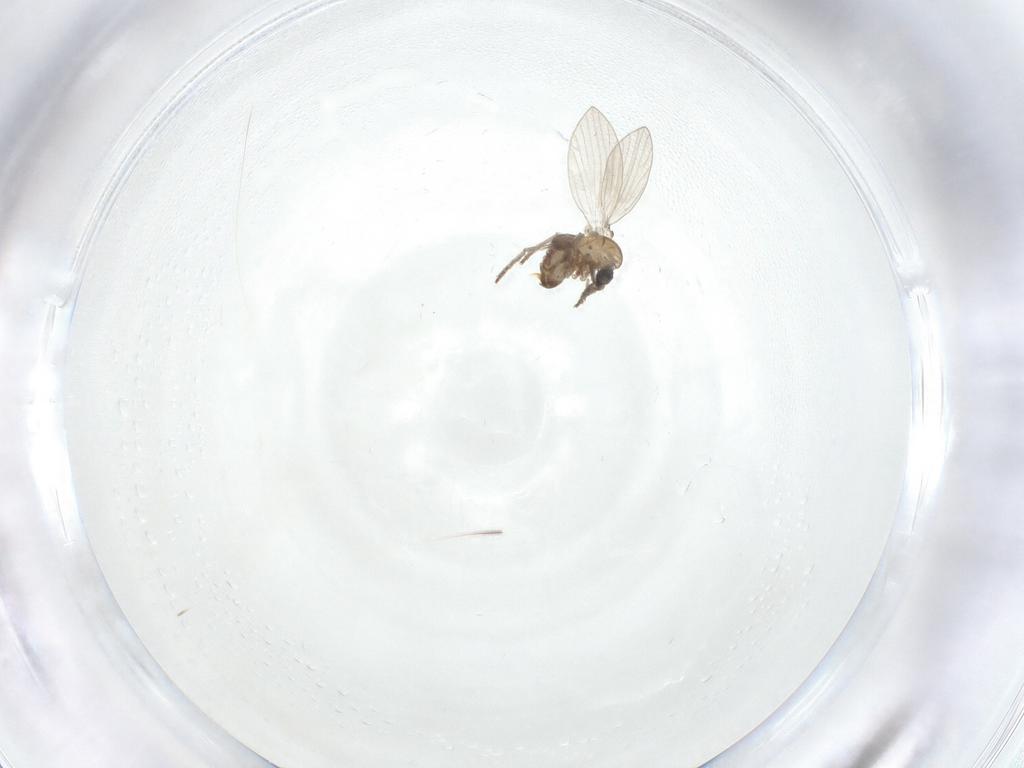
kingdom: Animalia
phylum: Arthropoda
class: Insecta
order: Diptera
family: Psychodidae
